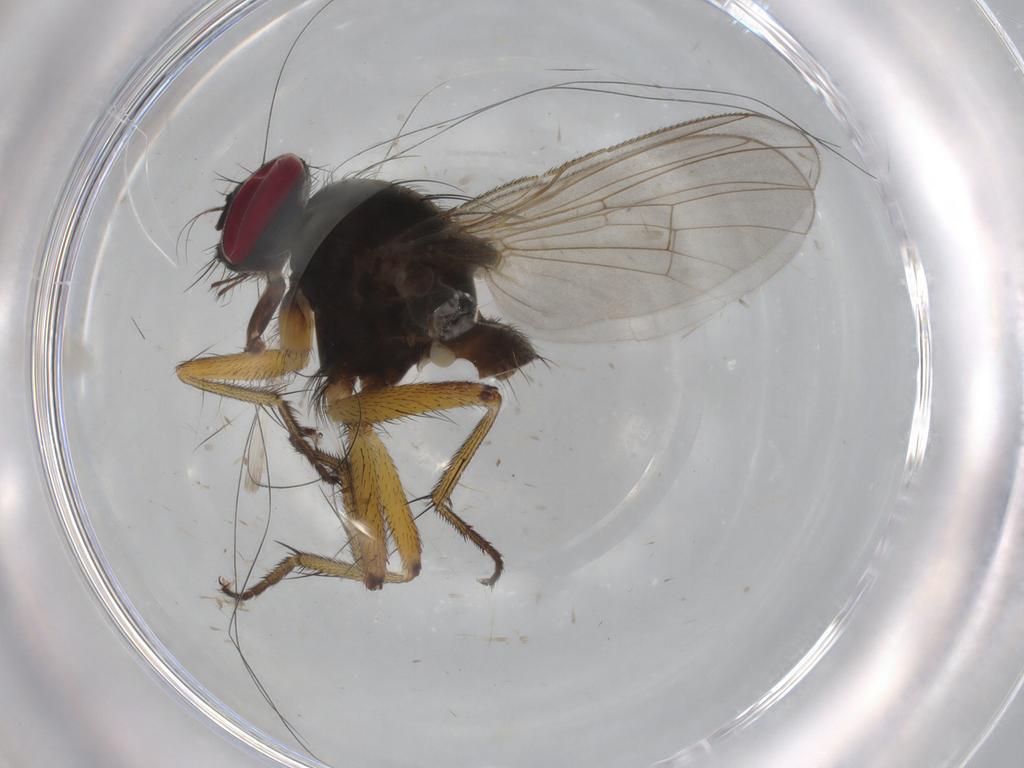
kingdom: Animalia
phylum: Arthropoda
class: Insecta
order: Diptera
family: Muscidae
